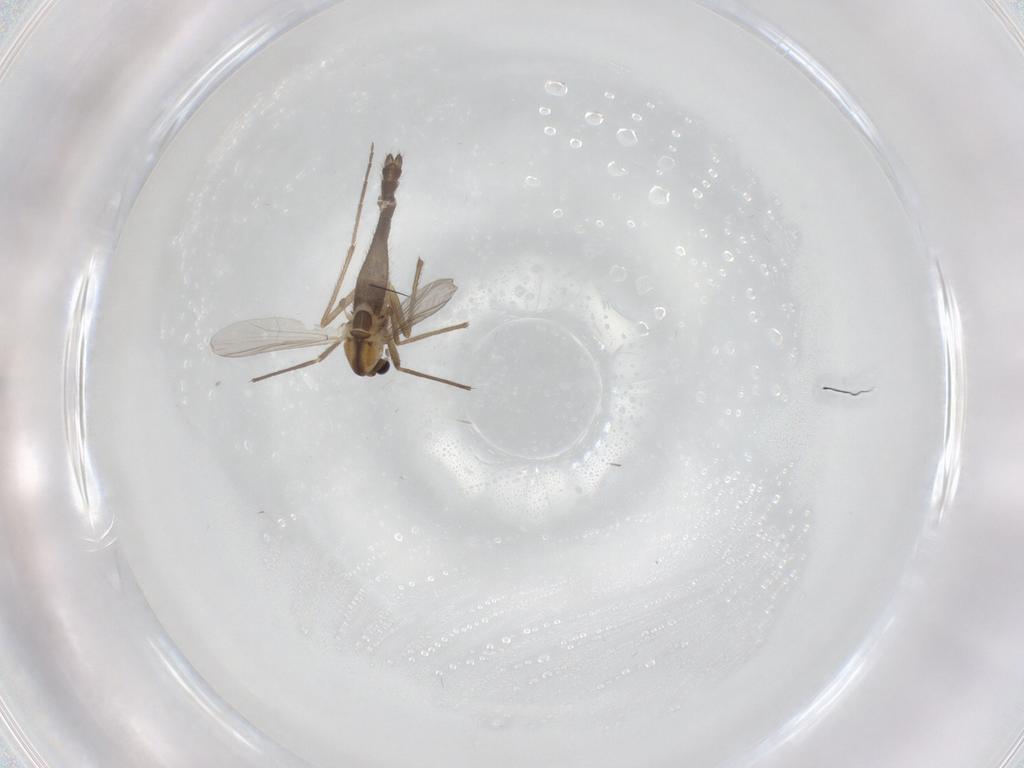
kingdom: Animalia
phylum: Arthropoda
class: Insecta
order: Diptera
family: Chironomidae
